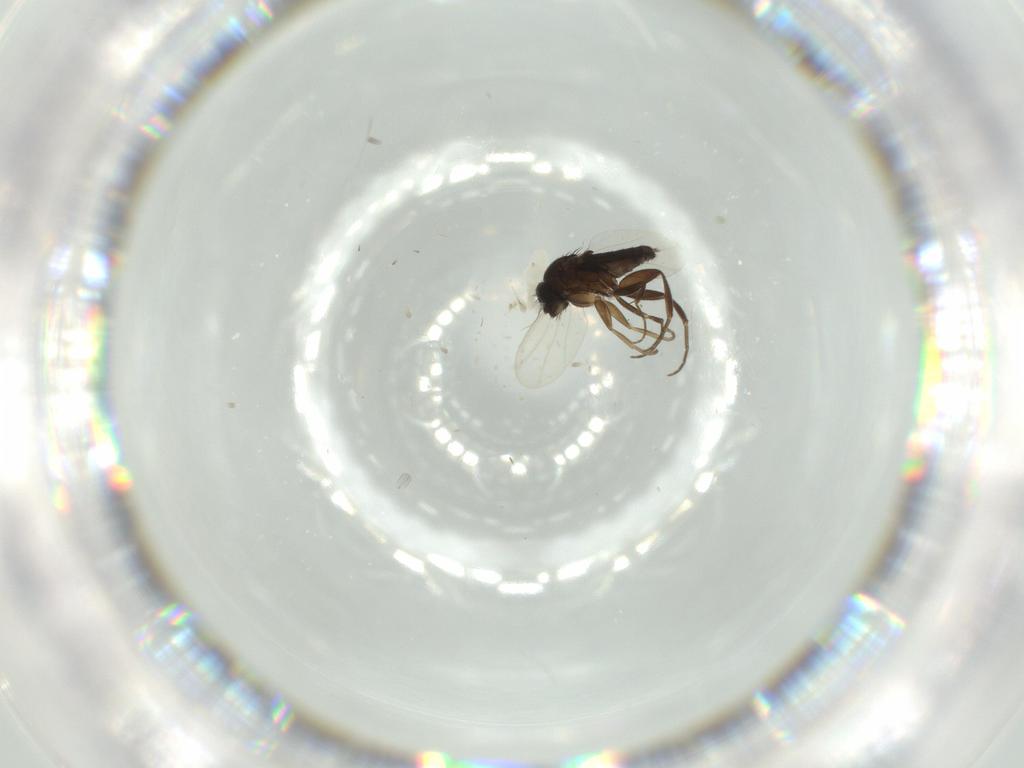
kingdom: Animalia
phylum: Arthropoda
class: Insecta
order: Diptera
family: Phoridae
